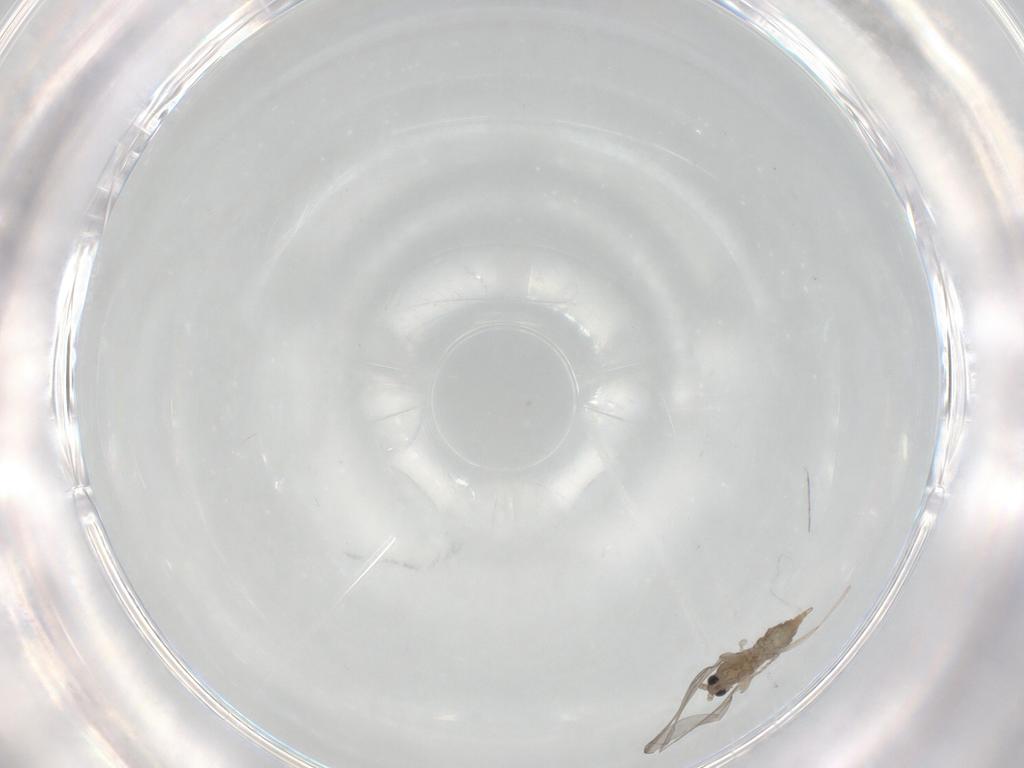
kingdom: Animalia
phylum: Arthropoda
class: Insecta
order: Diptera
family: Cecidomyiidae
